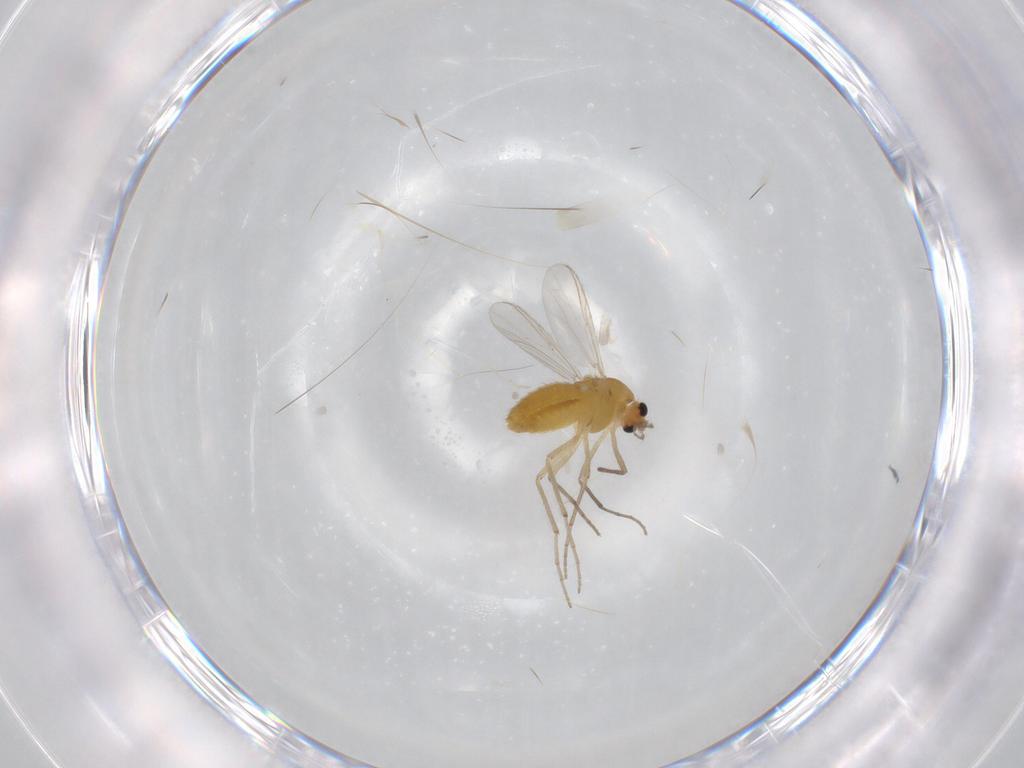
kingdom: Animalia
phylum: Arthropoda
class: Insecta
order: Diptera
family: Chironomidae
